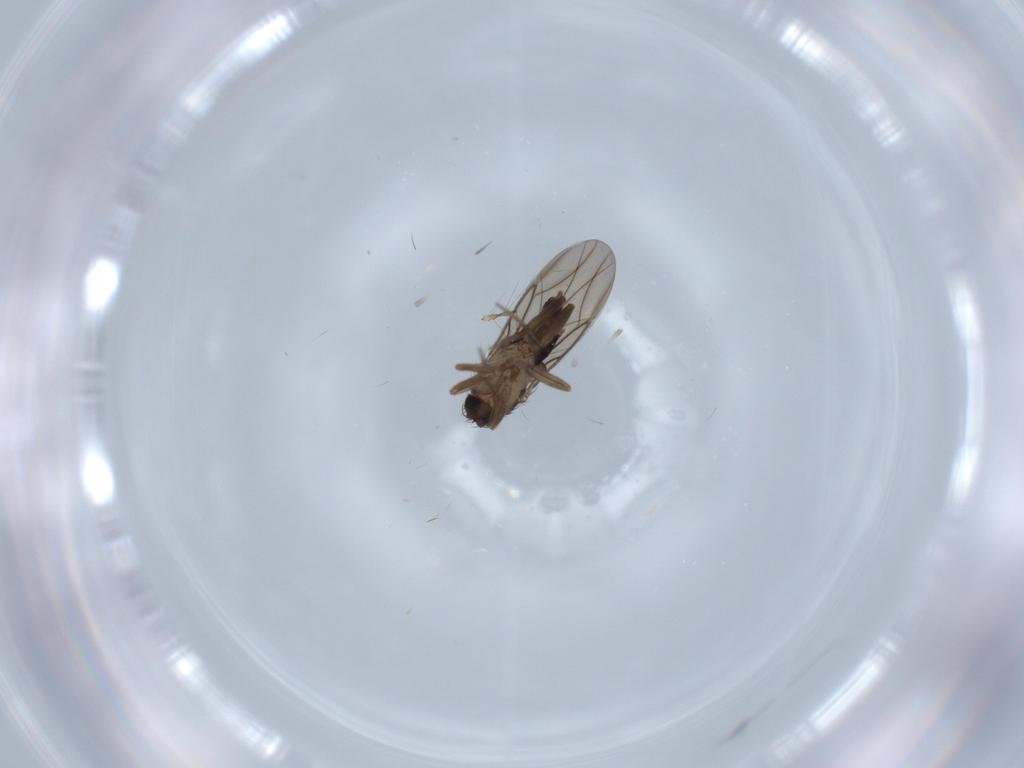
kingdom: Animalia
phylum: Arthropoda
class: Insecta
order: Diptera
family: Phoridae
